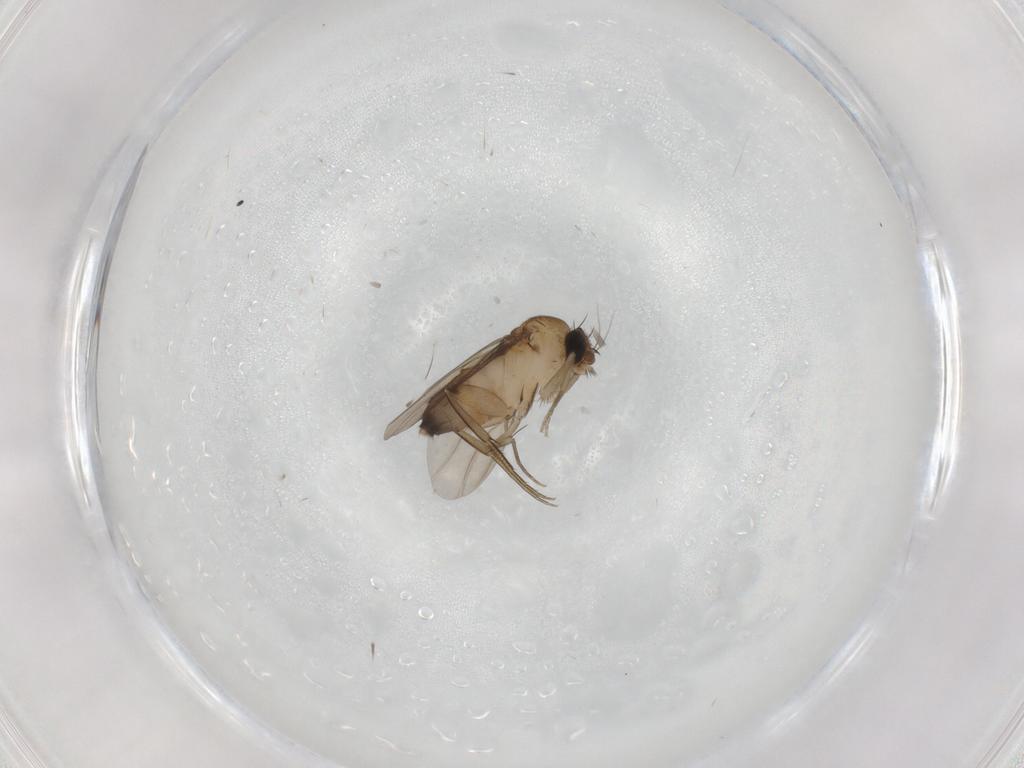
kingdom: Animalia
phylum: Arthropoda
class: Insecta
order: Diptera
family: Phoridae
